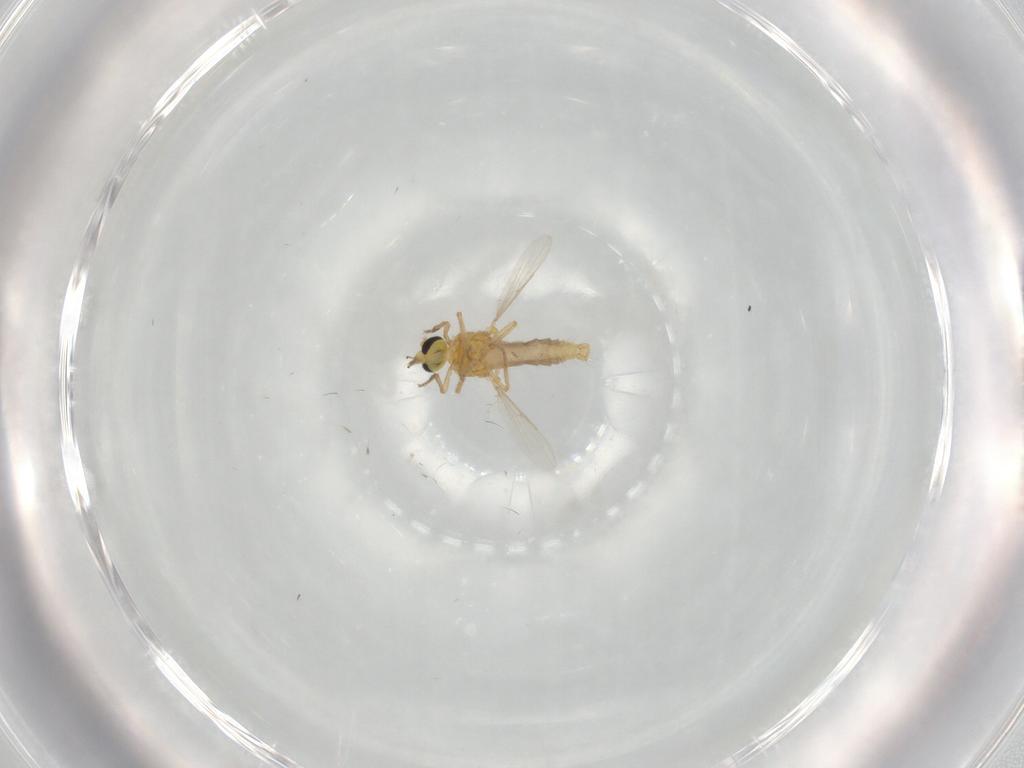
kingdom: Animalia
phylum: Arthropoda
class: Insecta
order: Diptera
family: Ceratopogonidae
